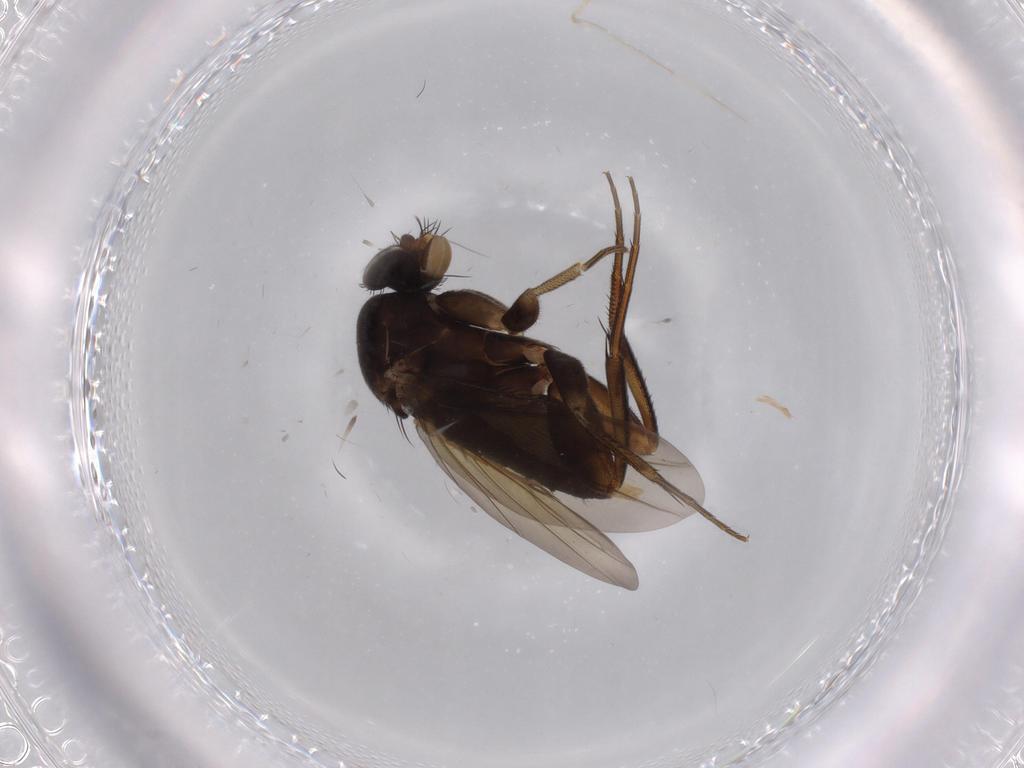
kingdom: Animalia
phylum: Arthropoda
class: Insecta
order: Diptera
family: Phoridae
